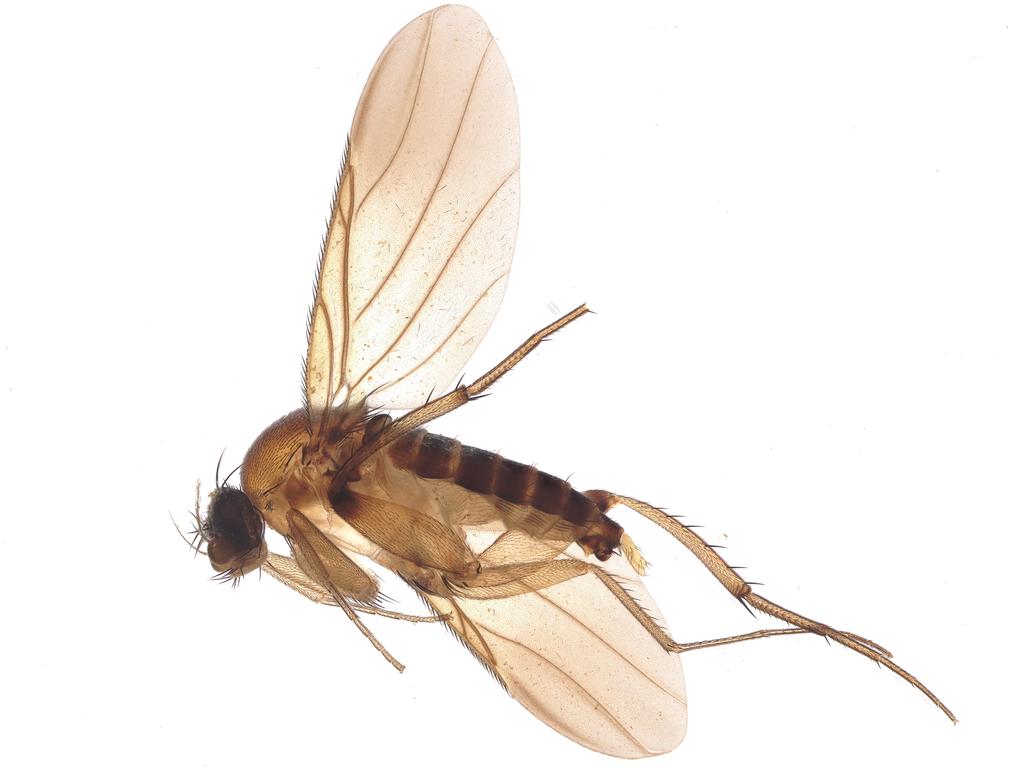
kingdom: Animalia
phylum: Arthropoda
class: Insecta
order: Diptera
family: Phoridae
